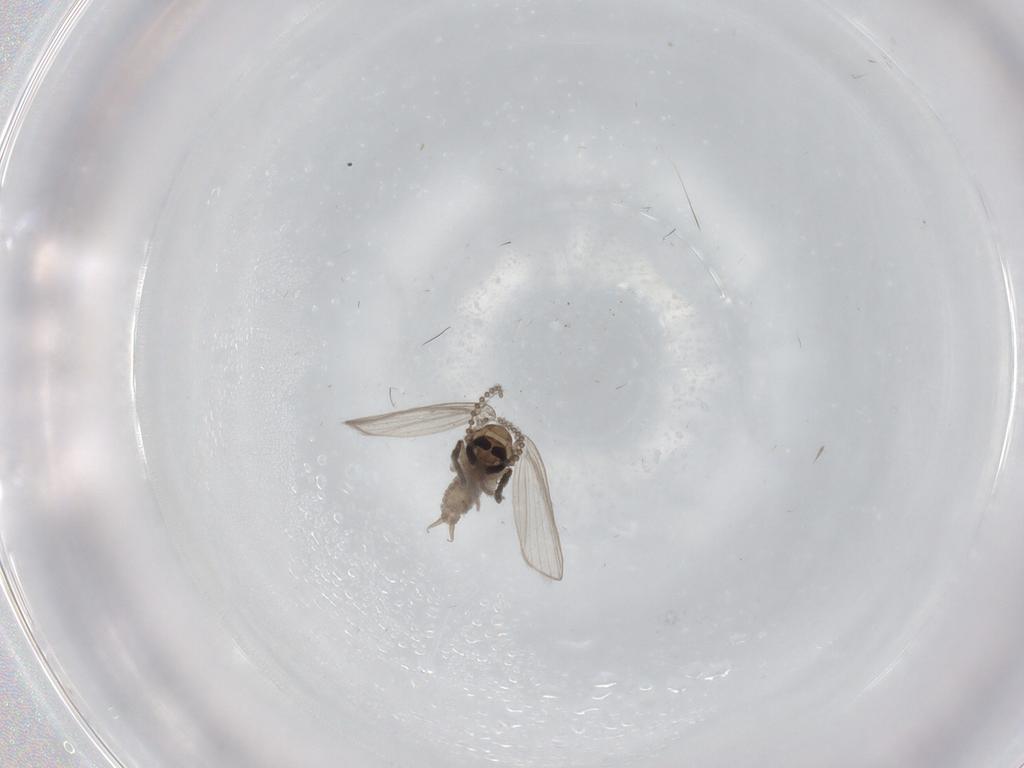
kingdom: Animalia
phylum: Arthropoda
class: Insecta
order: Diptera
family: Psychodidae
